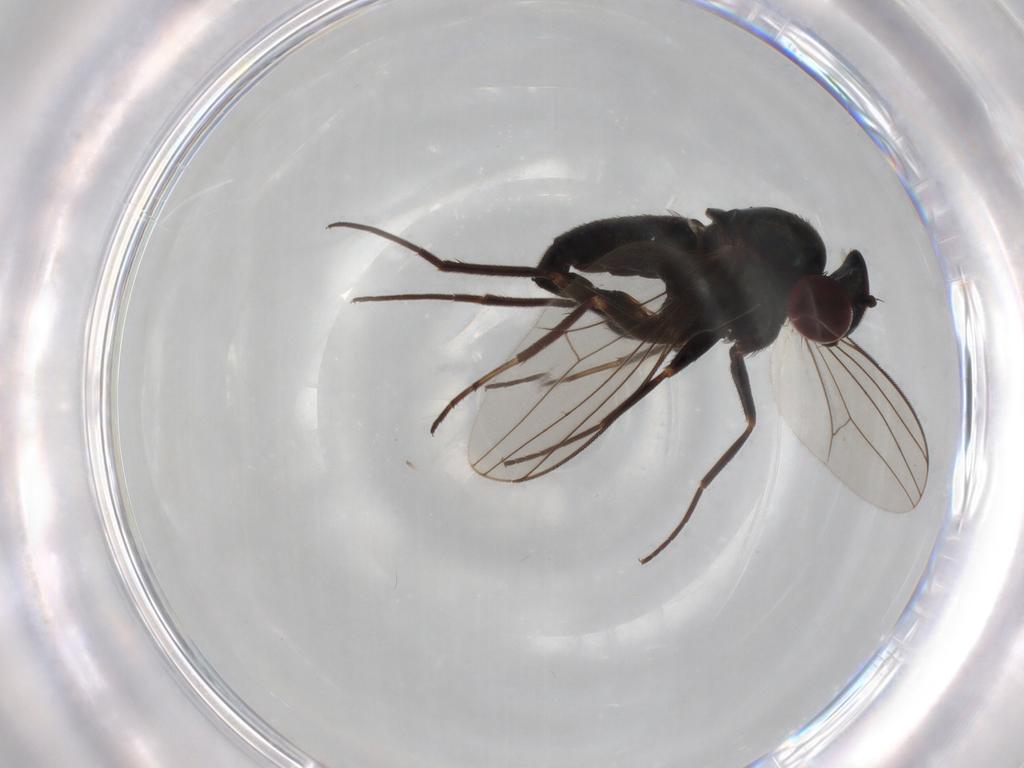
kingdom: Animalia
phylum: Arthropoda
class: Insecta
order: Diptera
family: Dolichopodidae
